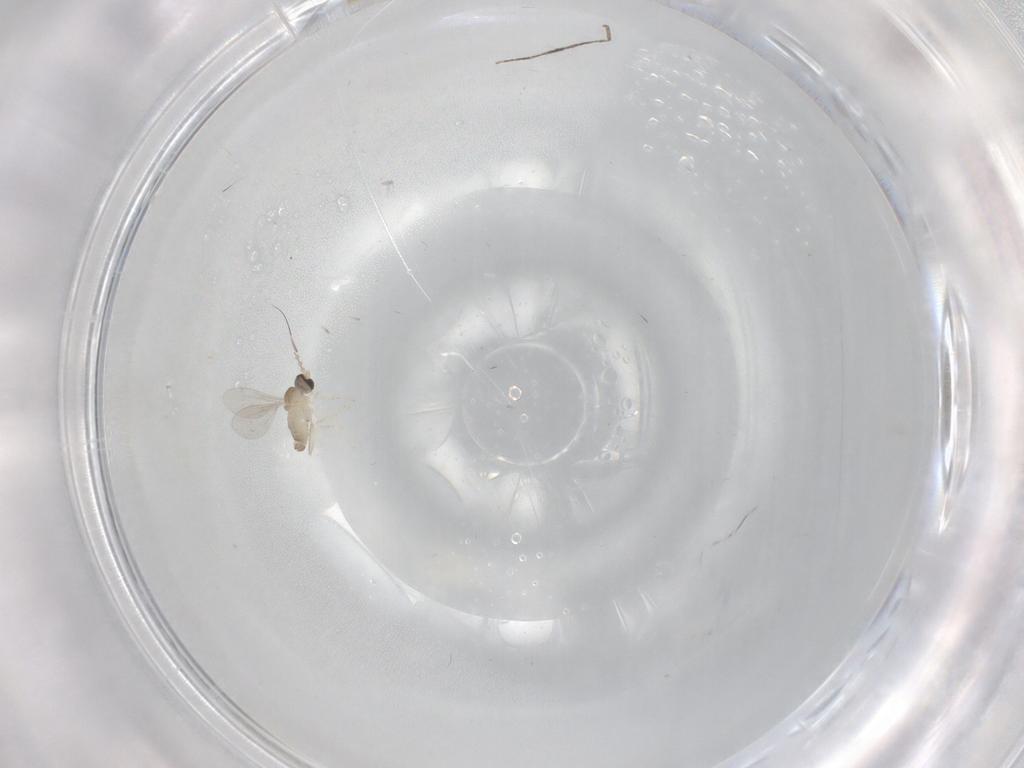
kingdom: Animalia
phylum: Arthropoda
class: Insecta
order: Diptera
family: Cecidomyiidae
